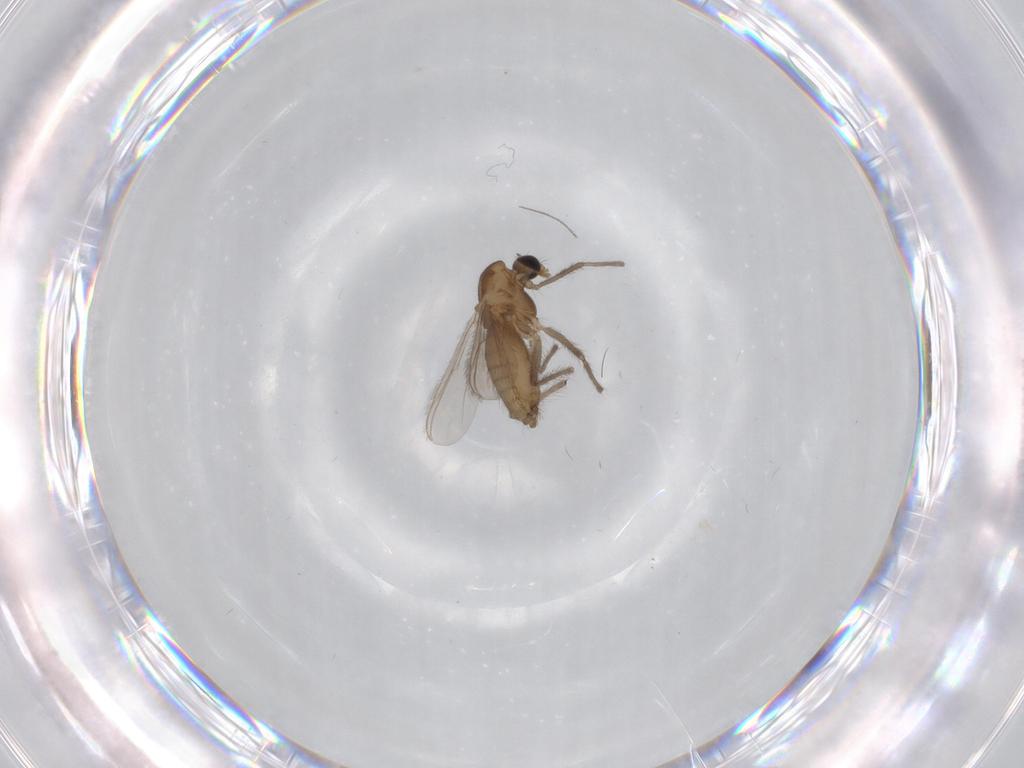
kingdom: Animalia
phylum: Arthropoda
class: Insecta
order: Diptera
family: Chironomidae
